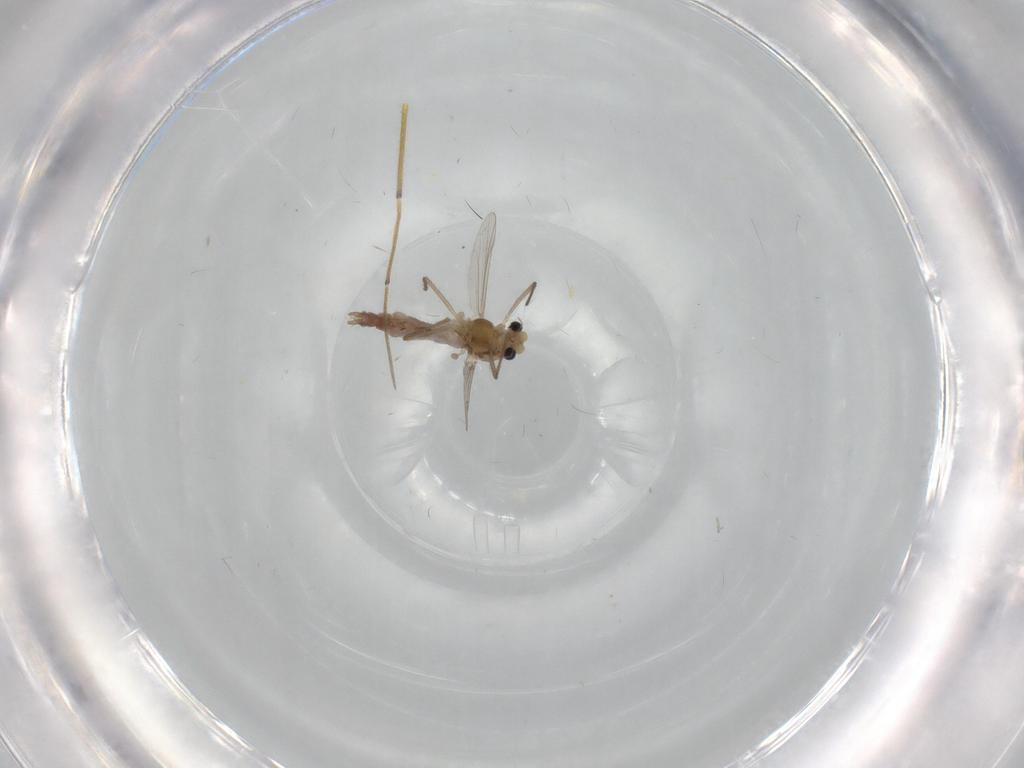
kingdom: Animalia
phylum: Arthropoda
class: Insecta
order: Diptera
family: Chironomidae
